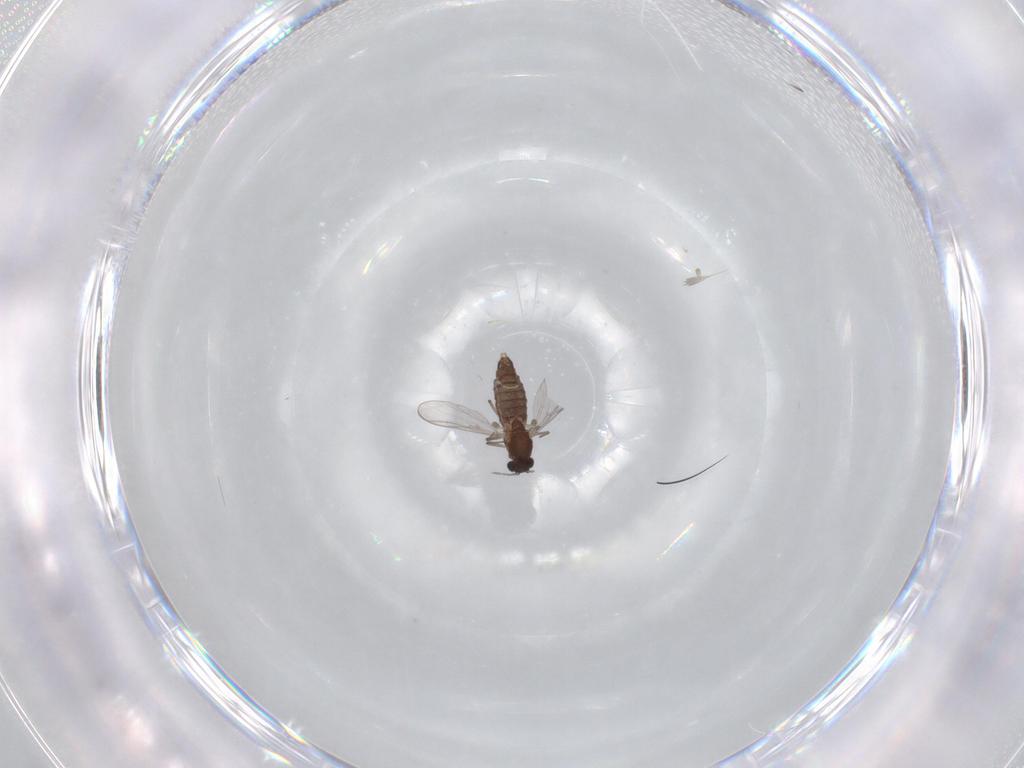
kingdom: Animalia
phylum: Arthropoda
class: Insecta
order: Diptera
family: Chironomidae
